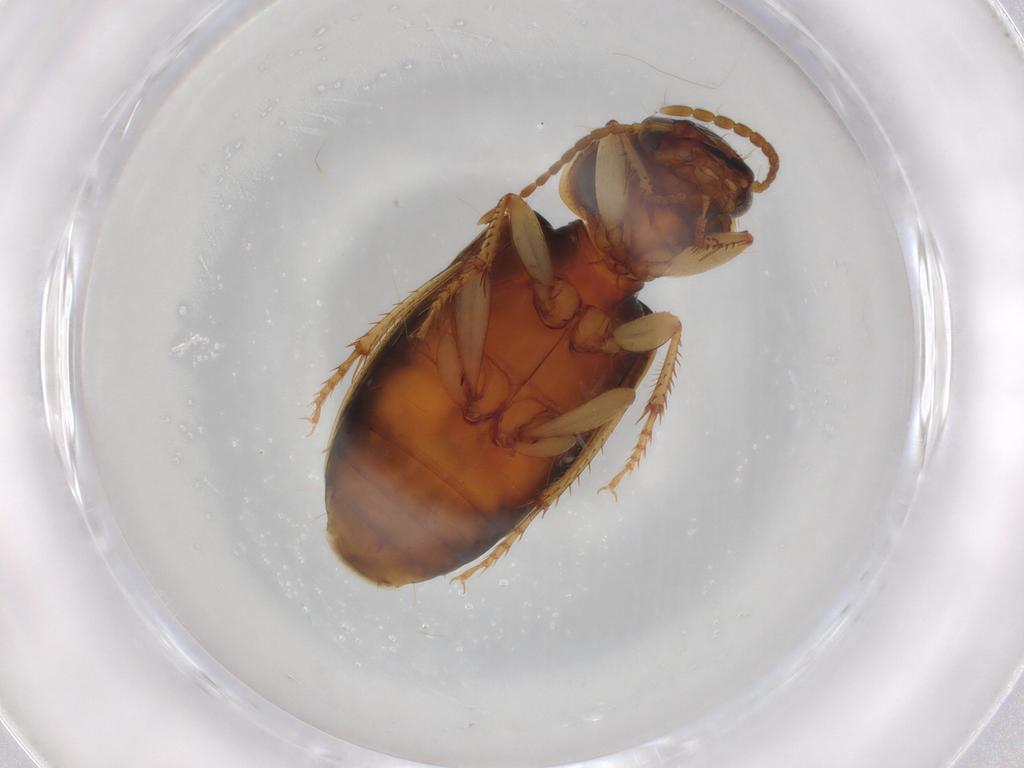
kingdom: Animalia
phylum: Arthropoda
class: Insecta
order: Coleoptera
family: Carabidae
